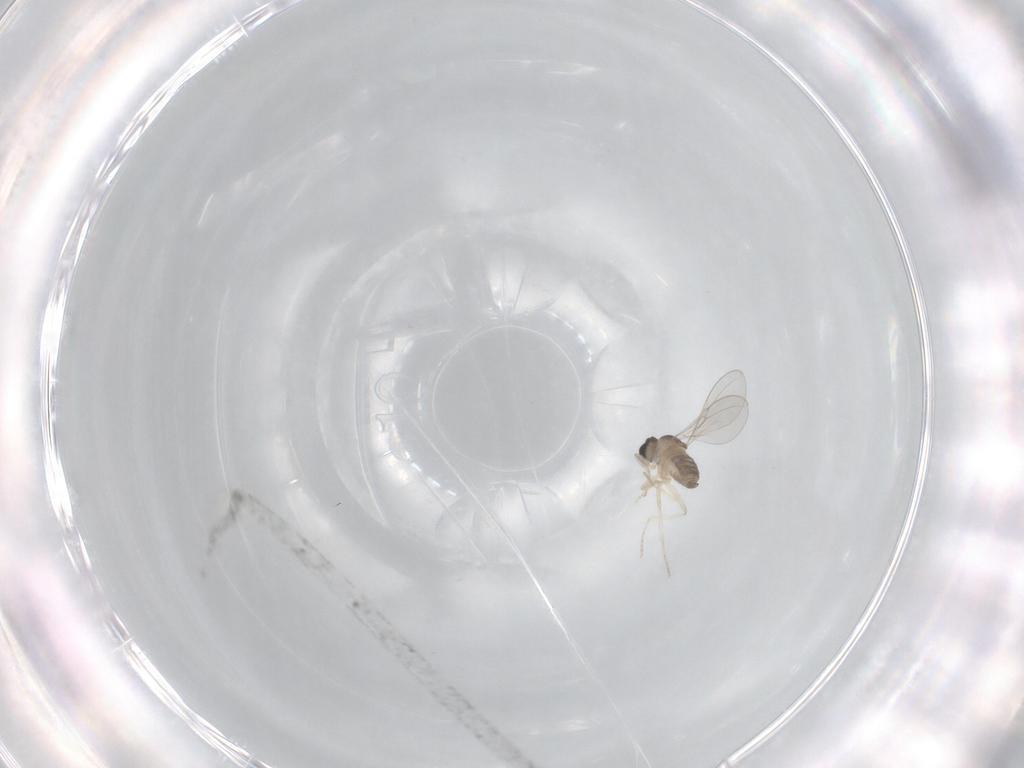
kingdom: Animalia
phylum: Arthropoda
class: Insecta
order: Diptera
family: Cecidomyiidae
